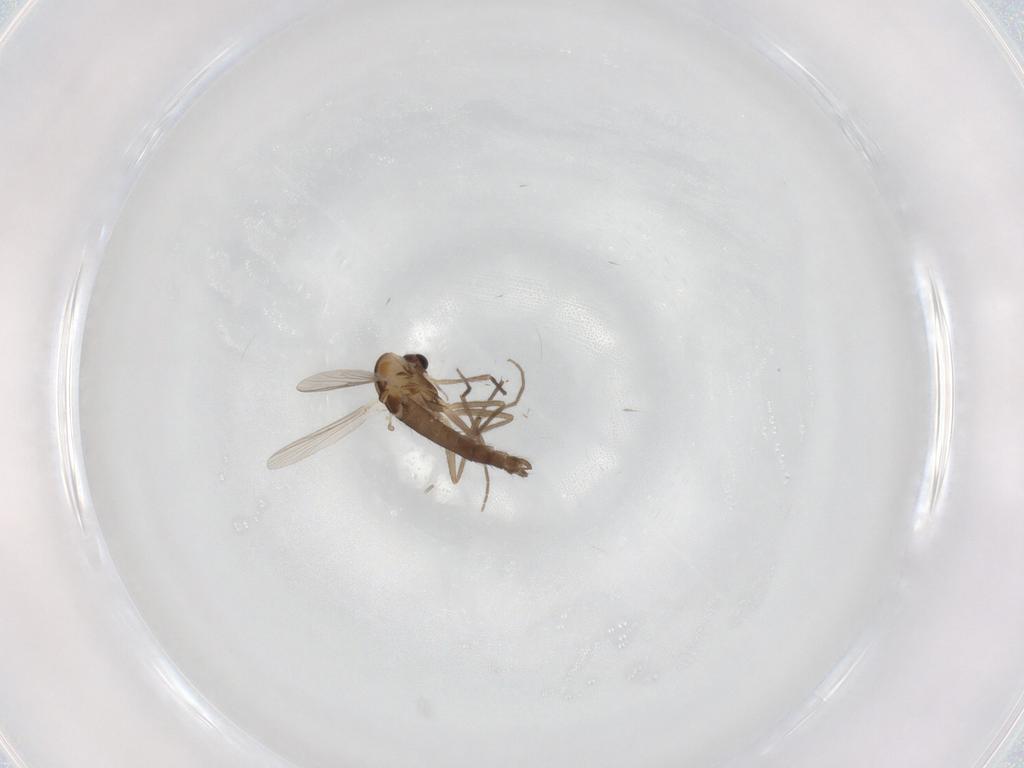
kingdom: Animalia
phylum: Arthropoda
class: Insecta
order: Diptera
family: Chironomidae
